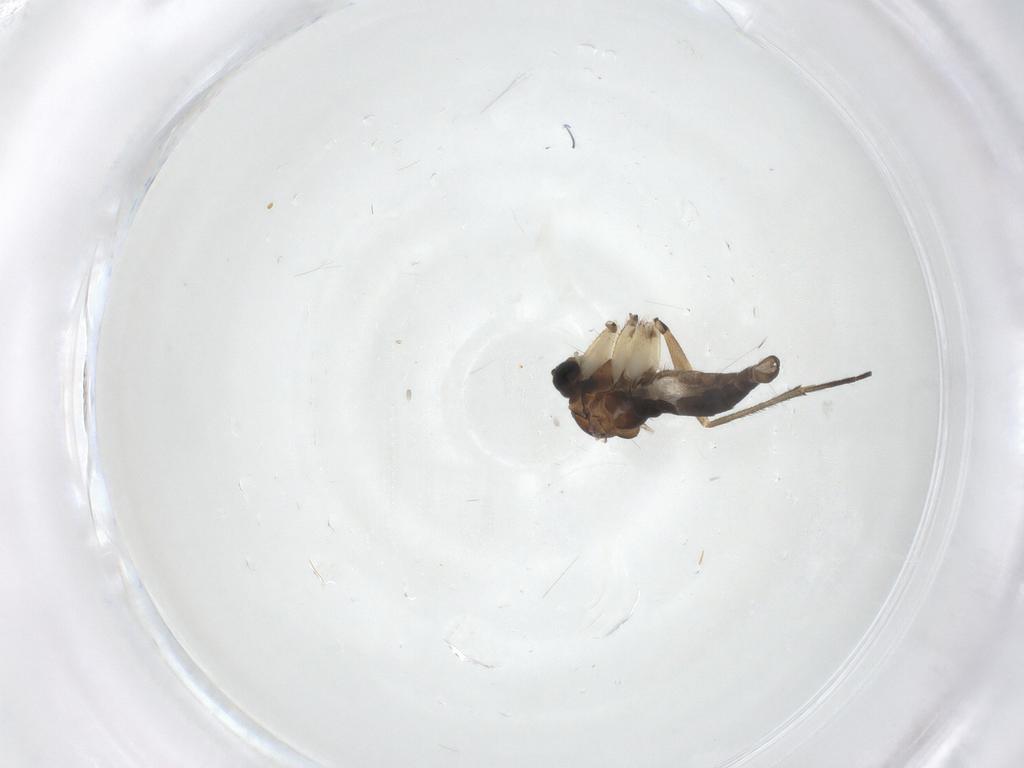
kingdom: Animalia
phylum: Arthropoda
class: Insecta
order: Diptera
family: Sciaridae
